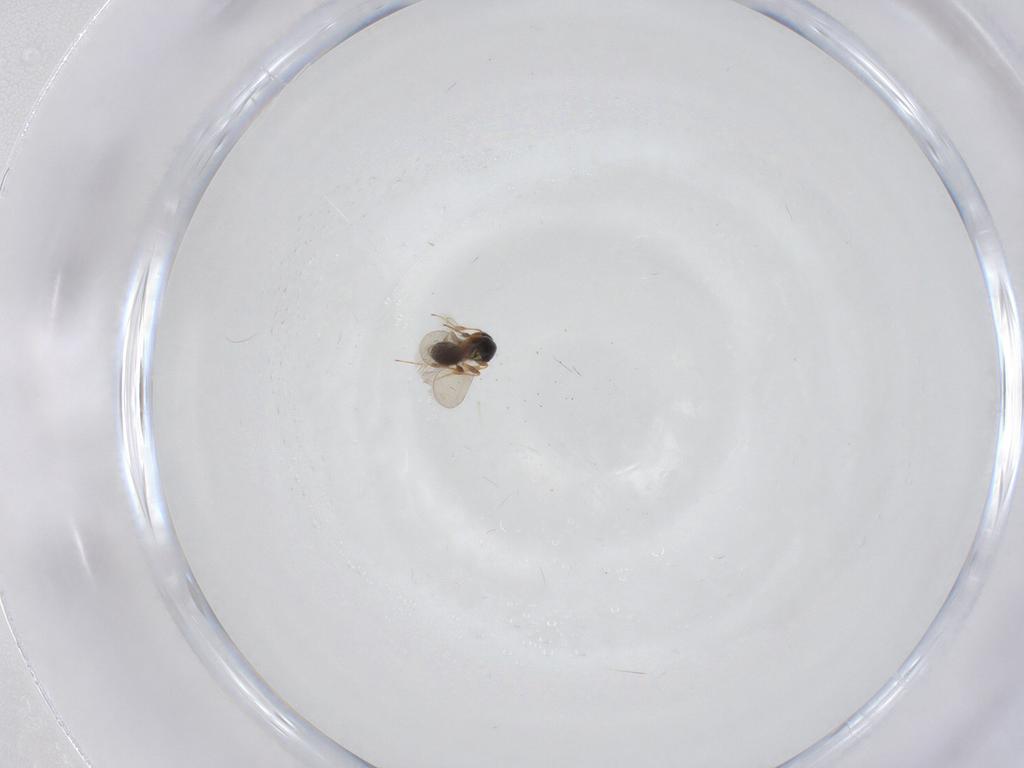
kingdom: Animalia
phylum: Arthropoda
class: Insecta
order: Hymenoptera
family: Platygastridae
